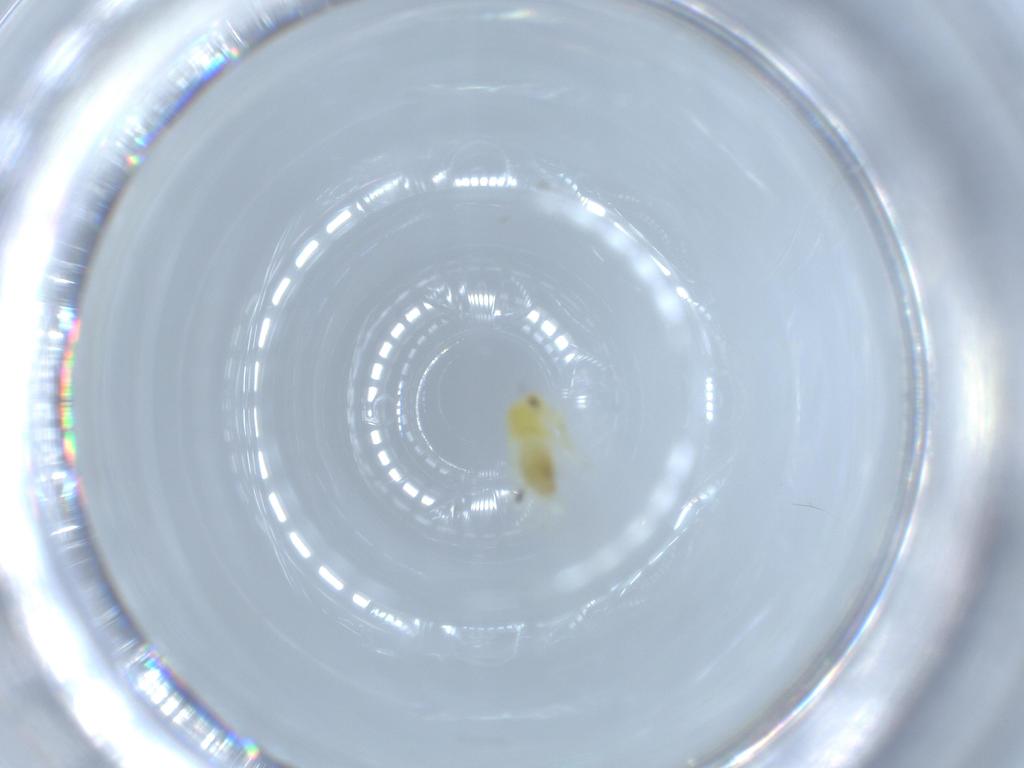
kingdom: Animalia
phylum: Arthropoda
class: Insecta
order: Hemiptera
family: Aleyrodidae
